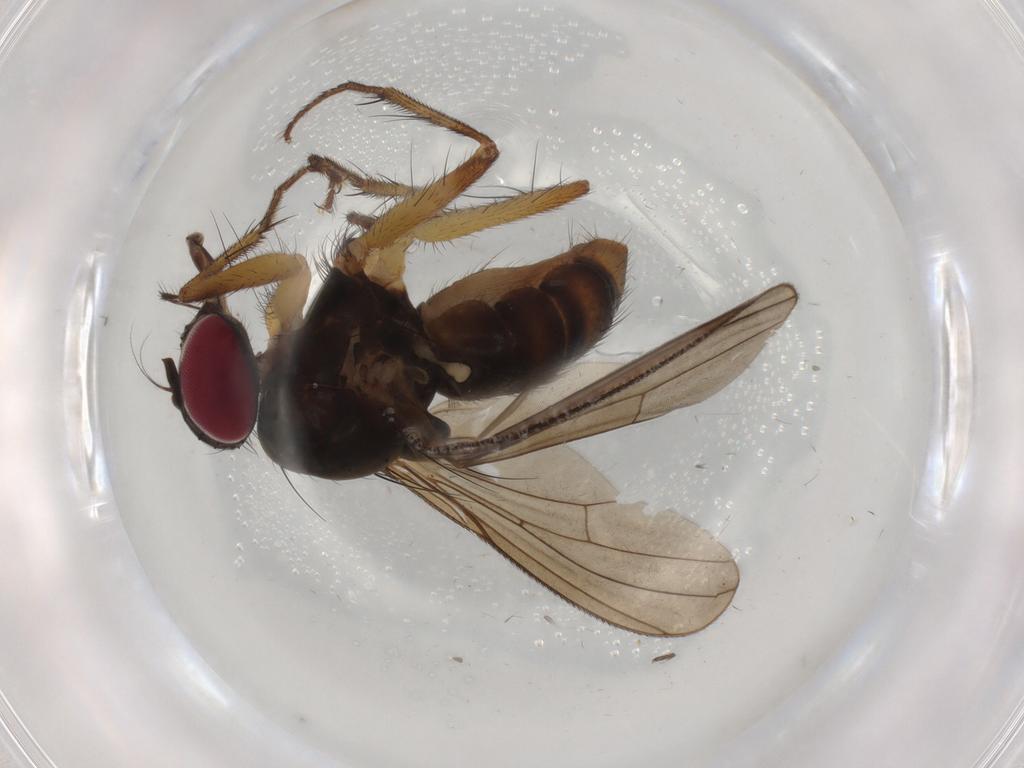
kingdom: Animalia
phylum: Arthropoda
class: Insecta
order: Diptera
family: Anthomyiidae
